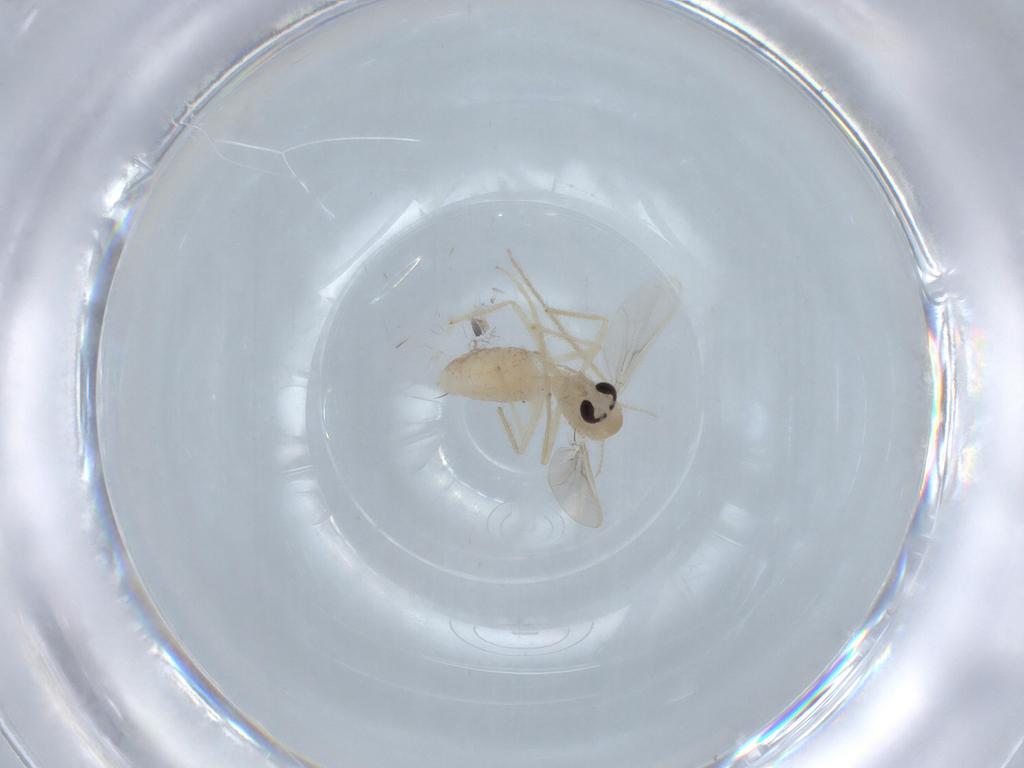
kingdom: Animalia
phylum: Arthropoda
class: Insecta
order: Diptera
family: Chironomidae
